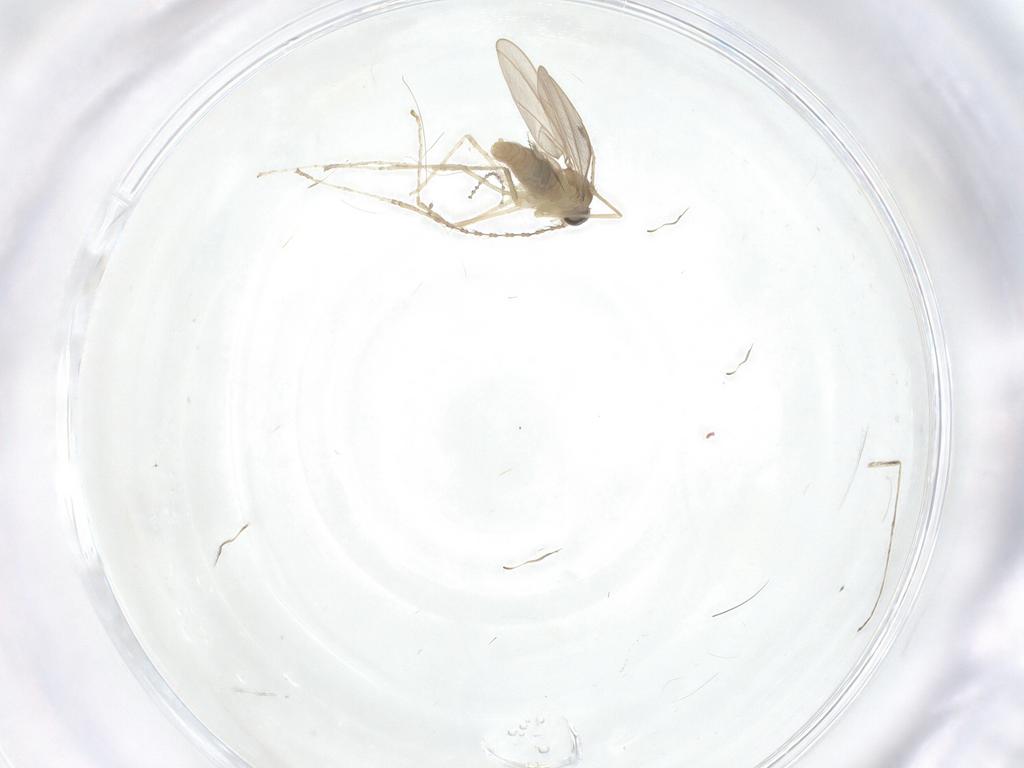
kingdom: Animalia
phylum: Arthropoda
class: Insecta
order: Diptera
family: Cecidomyiidae
